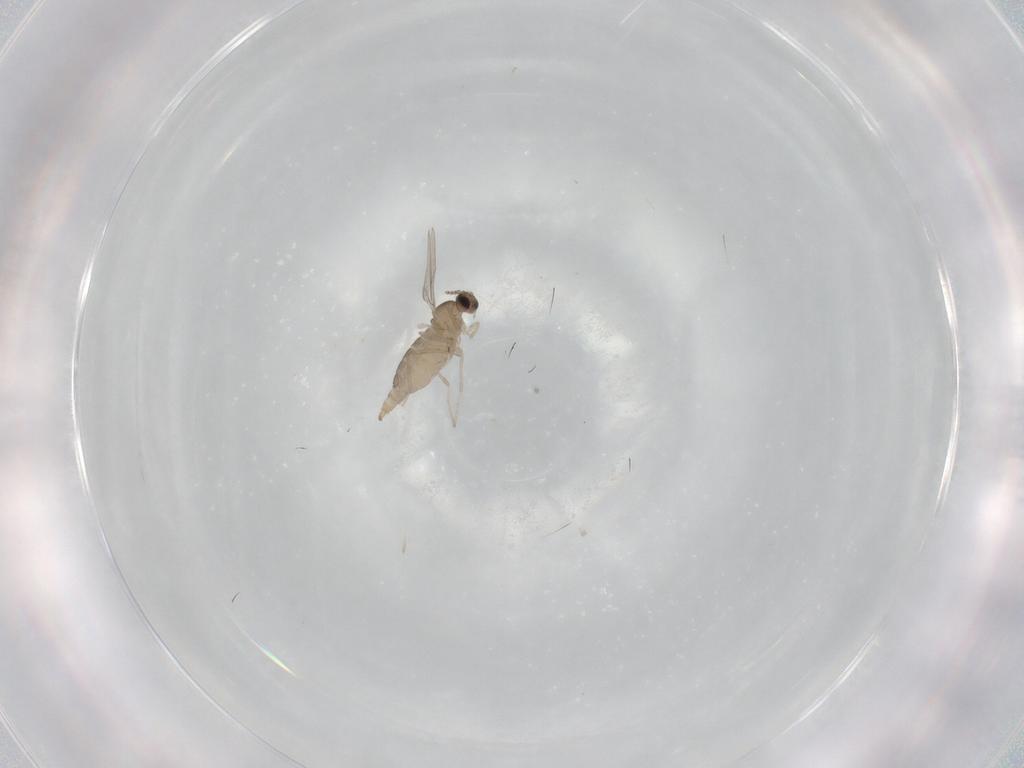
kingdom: Animalia
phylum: Arthropoda
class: Insecta
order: Diptera
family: Cecidomyiidae
